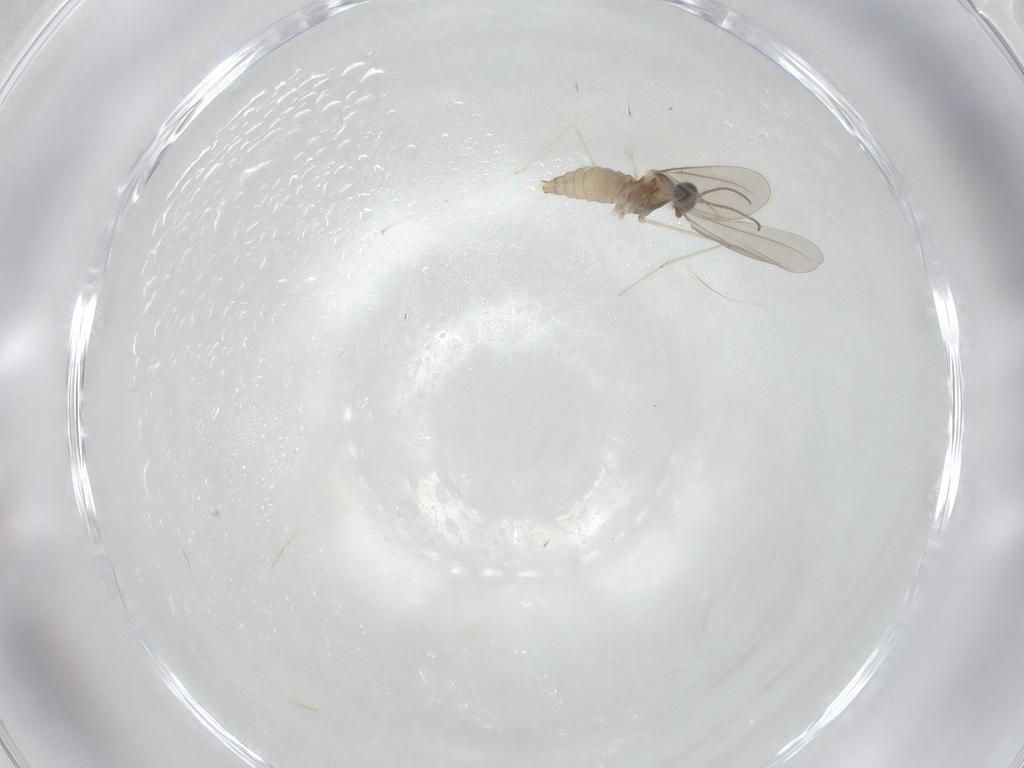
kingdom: Animalia
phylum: Arthropoda
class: Insecta
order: Diptera
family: Cecidomyiidae
